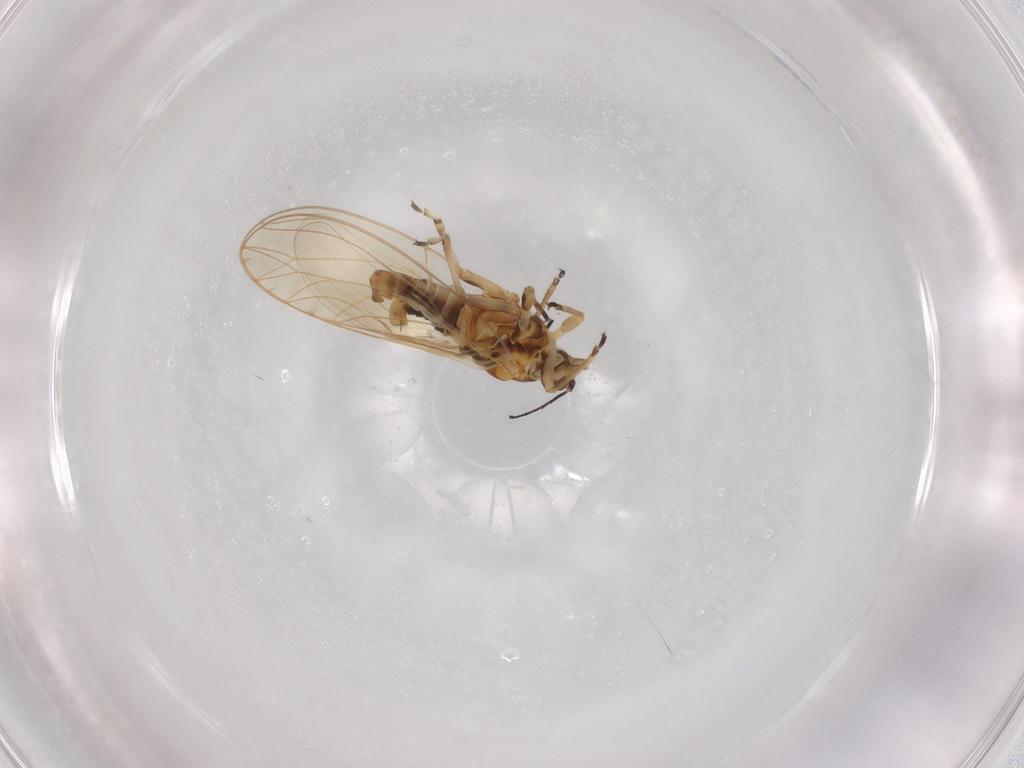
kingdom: Animalia
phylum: Arthropoda
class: Insecta
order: Hemiptera
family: Triozidae
